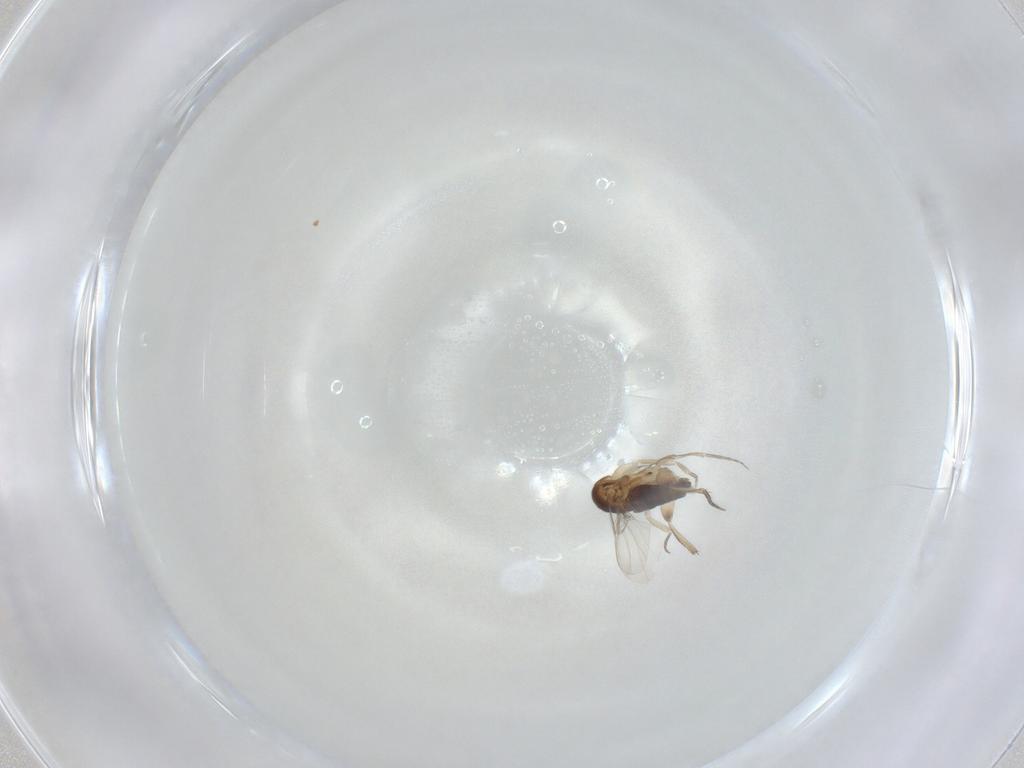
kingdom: Animalia
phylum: Arthropoda
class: Insecta
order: Diptera
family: Phoridae
